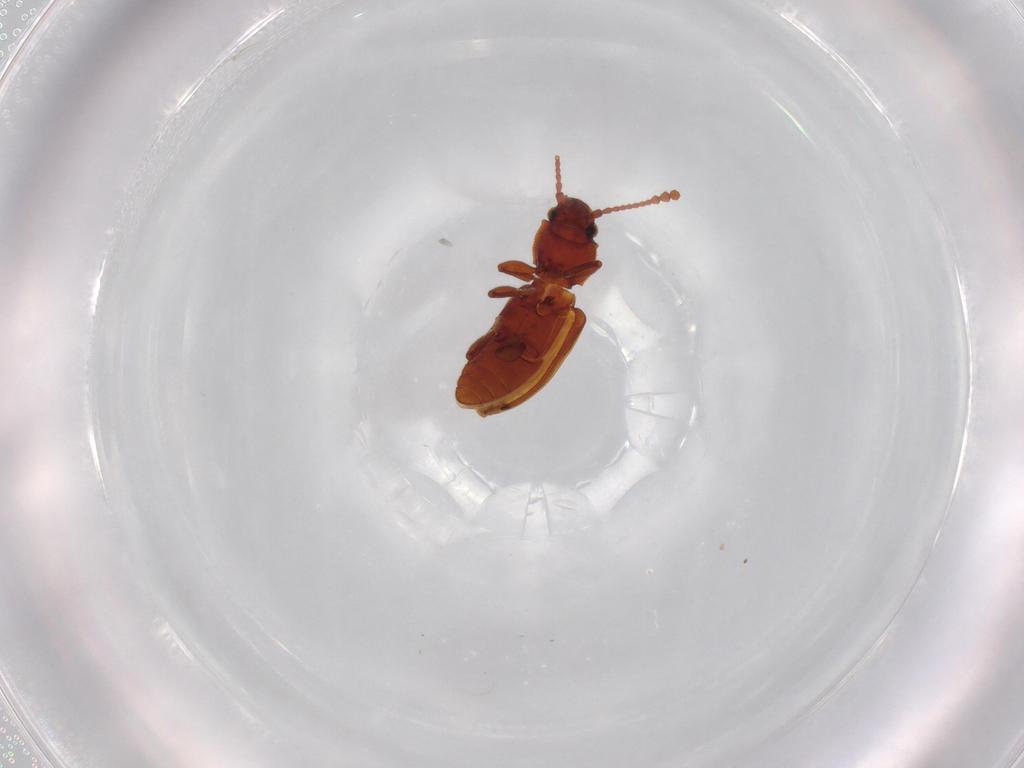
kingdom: Animalia
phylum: Arthropoda
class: Insecta
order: Coleoptera
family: Silvanidae
